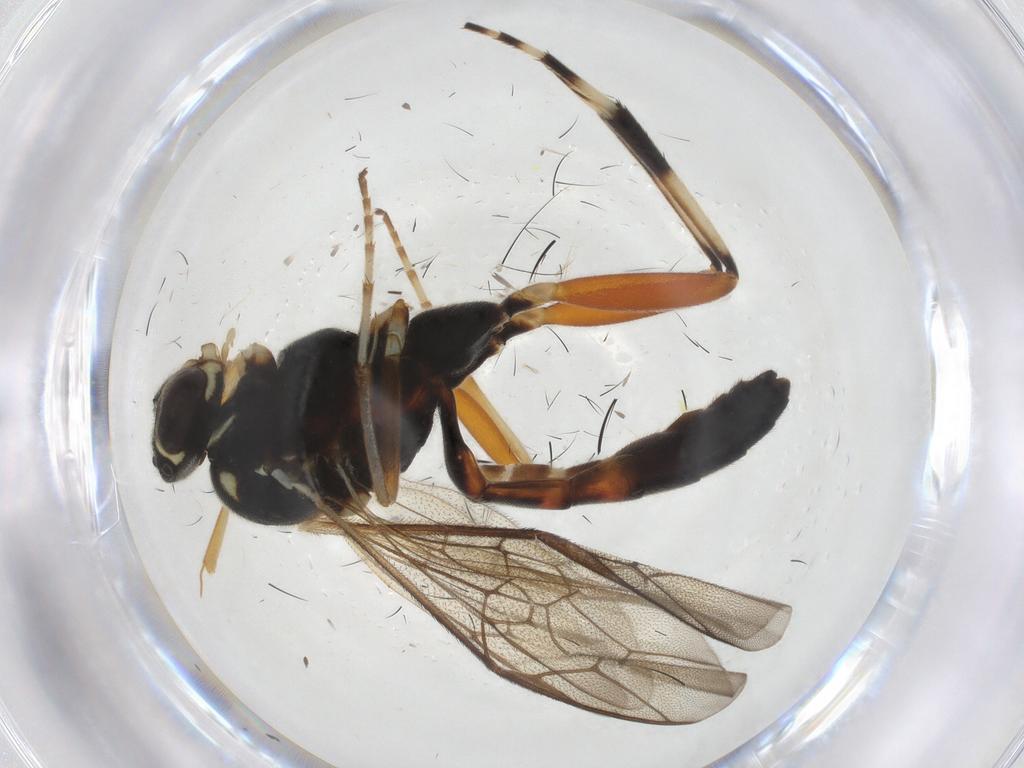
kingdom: Animalia
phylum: Arthropoda
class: Insecta
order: Hymenoptera
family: Ichneumonidae
